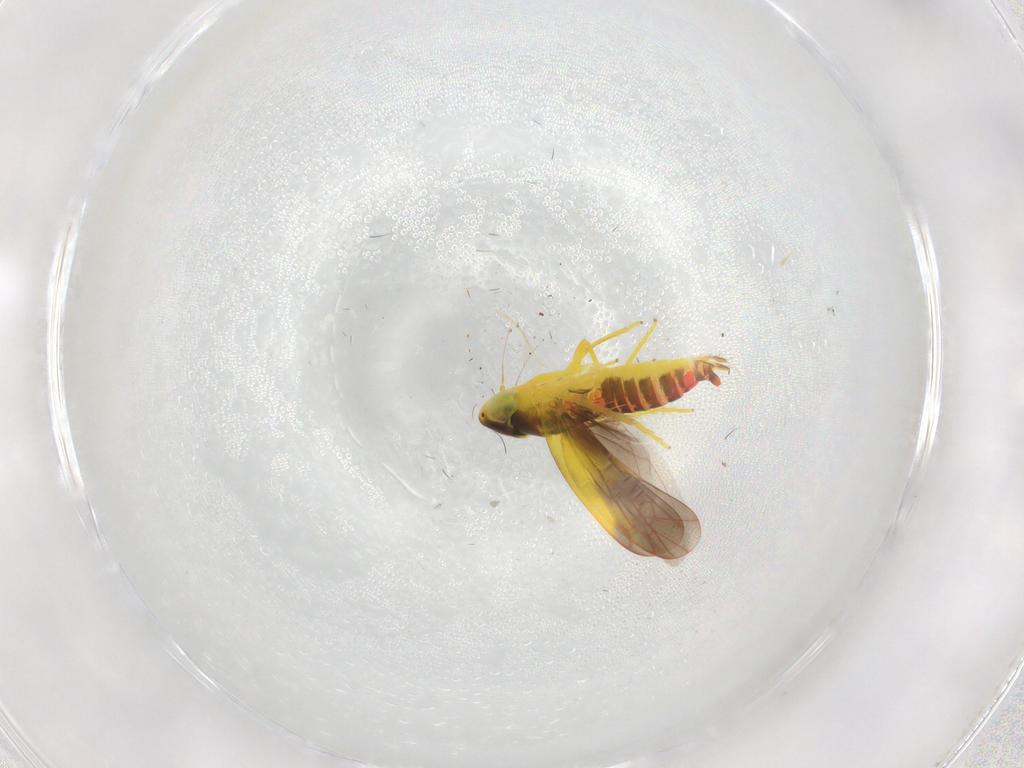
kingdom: Animalia
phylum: Arthropoda
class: Insecta
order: Hemiptera
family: Cicadellidae
